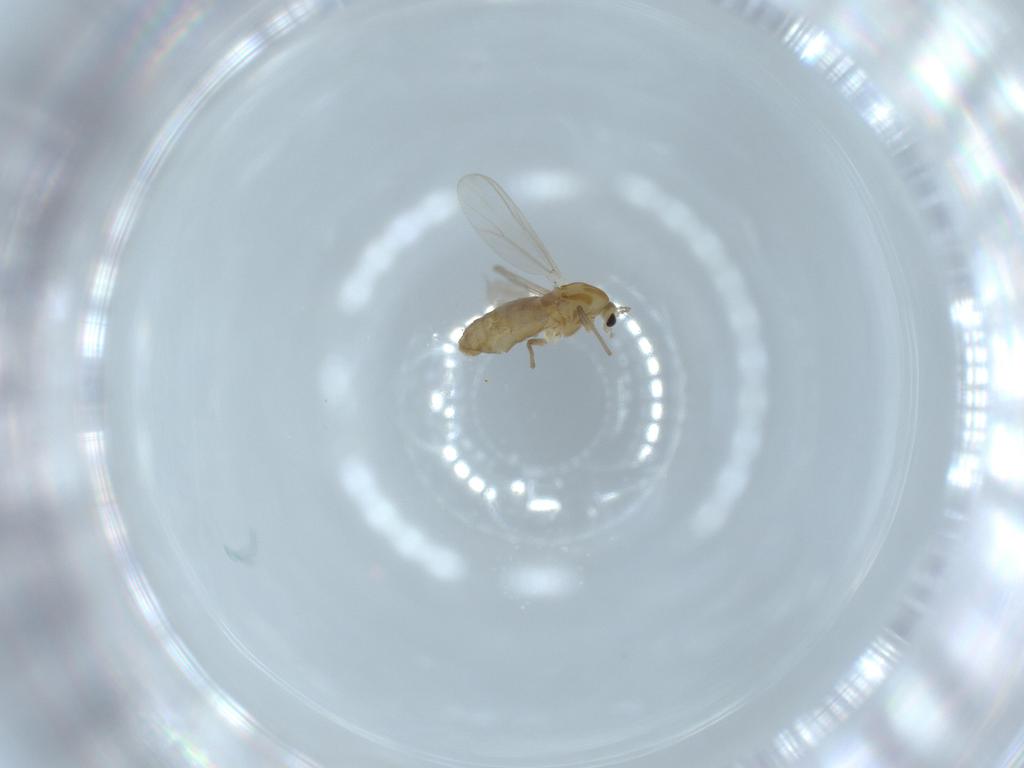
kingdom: Animalia
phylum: Arthropoda
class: Insecta
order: Diptera
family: Chironomidae
